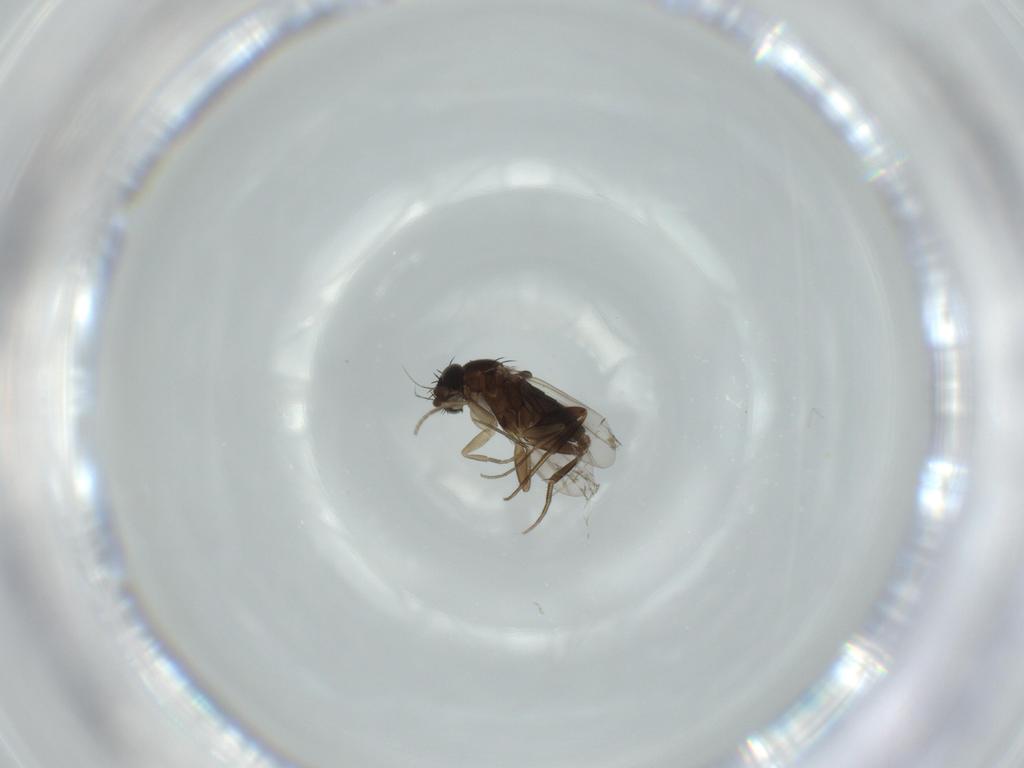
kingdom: Animalia
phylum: Arthropoda
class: Insecta
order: Diptera
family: Phoridae
